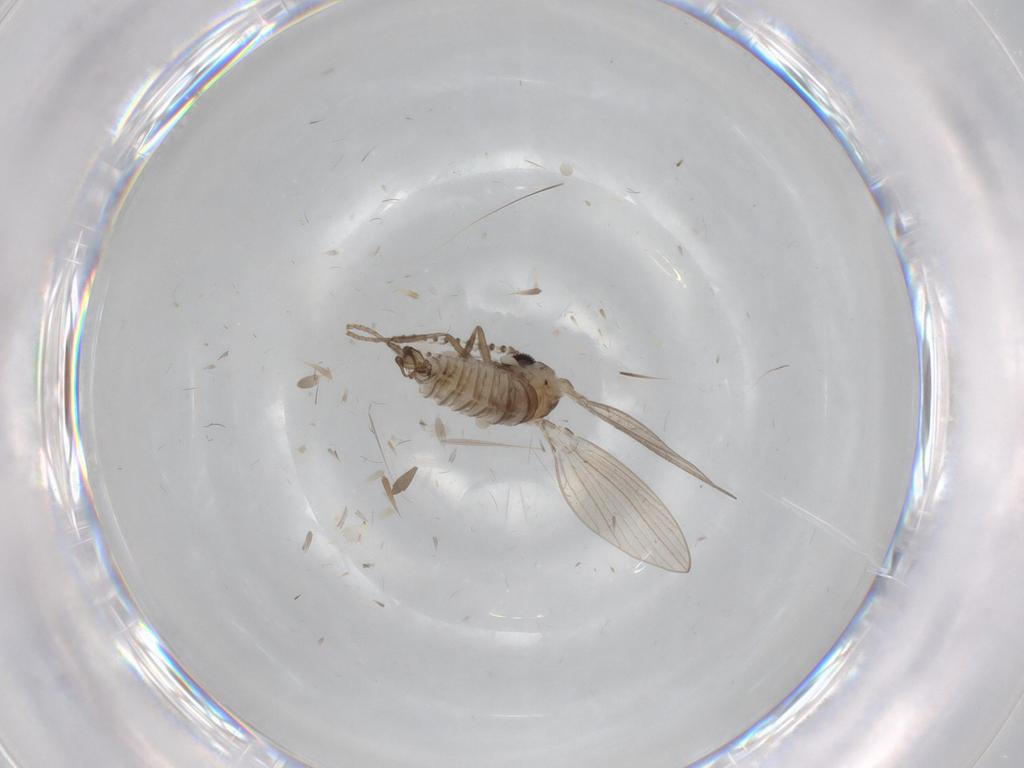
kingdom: Animalia
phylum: Arthropoda
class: Insecta
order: Diptera
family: Psychodidae
